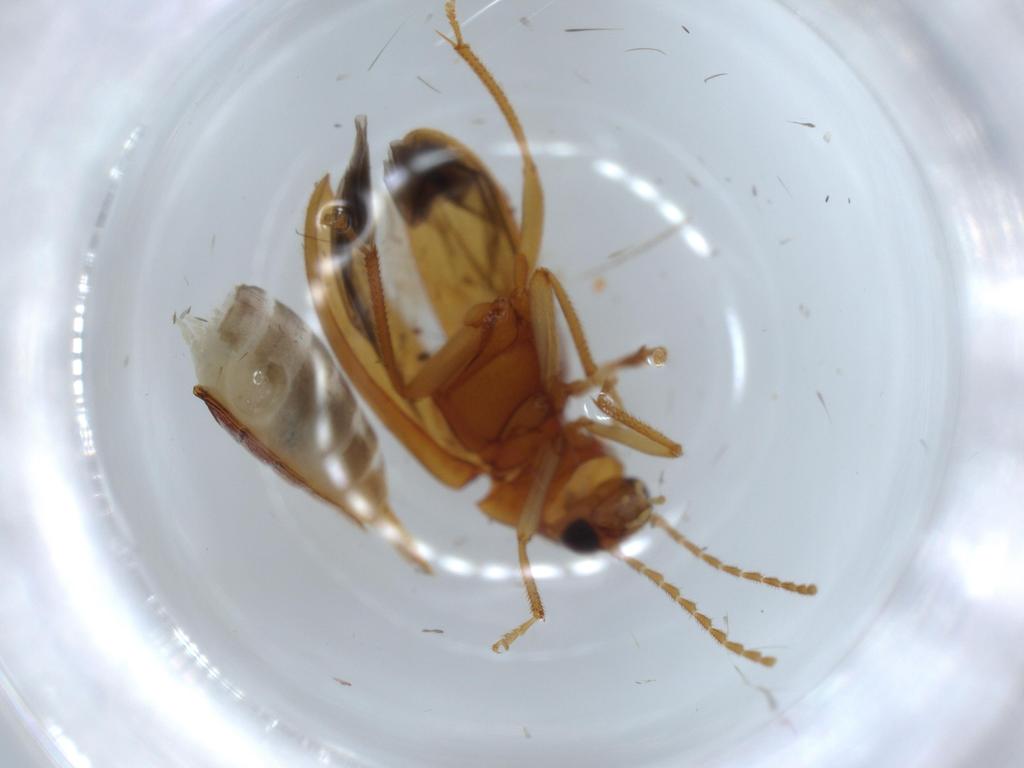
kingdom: Animalia
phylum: Arthropoda
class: Insecta
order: Coleoptera
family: Ptilodactylidae
